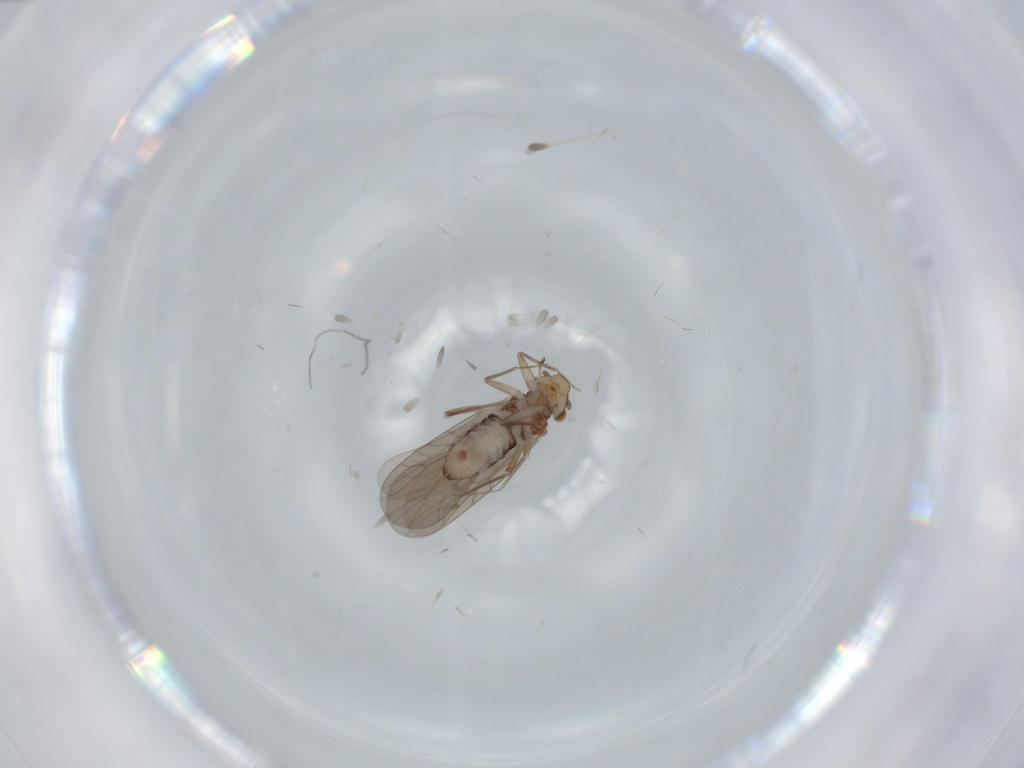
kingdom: Animalia
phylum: Arthropoda
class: Insecta
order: Psocodea
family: Lepidopsocidae
